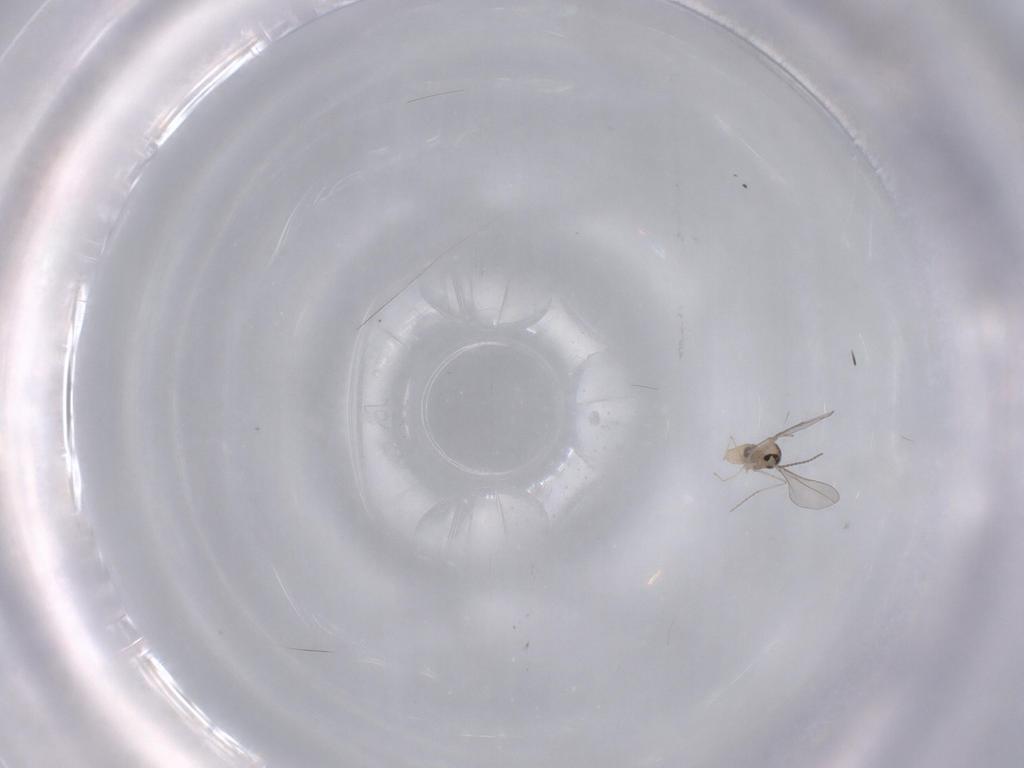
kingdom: Animalia
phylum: Arthropoda
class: Insecta
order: Diptera
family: Cecidomyiidae
